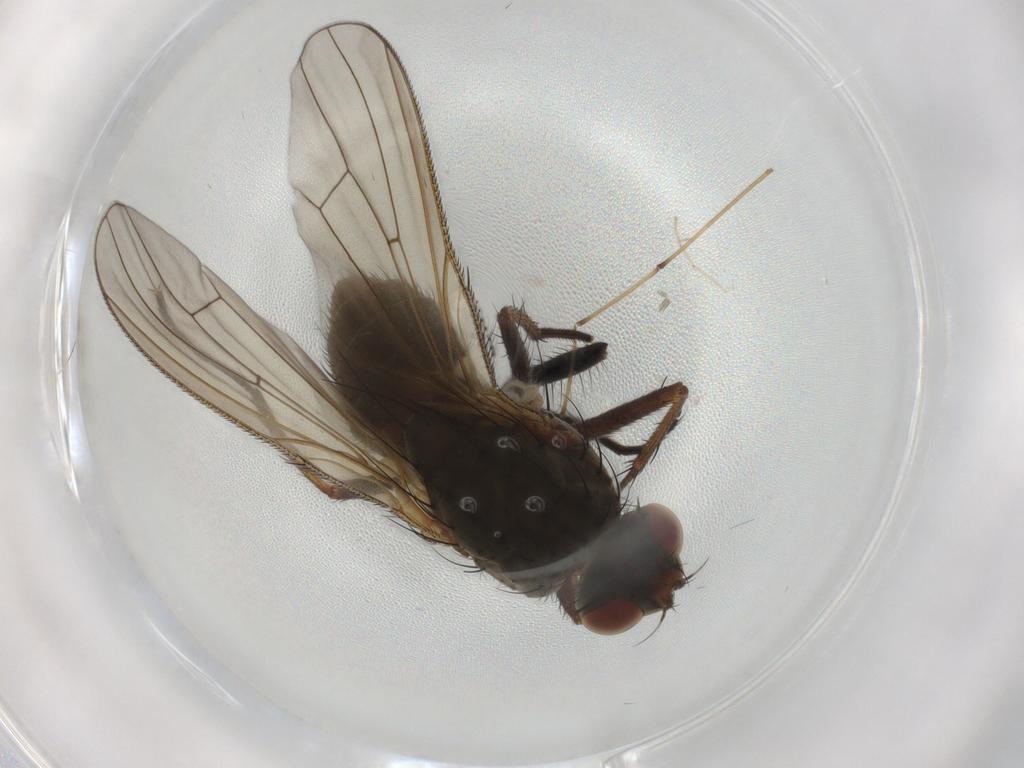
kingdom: Animalia
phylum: Arthropoda
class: Insecta
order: Diptera
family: Anthomyiidae
